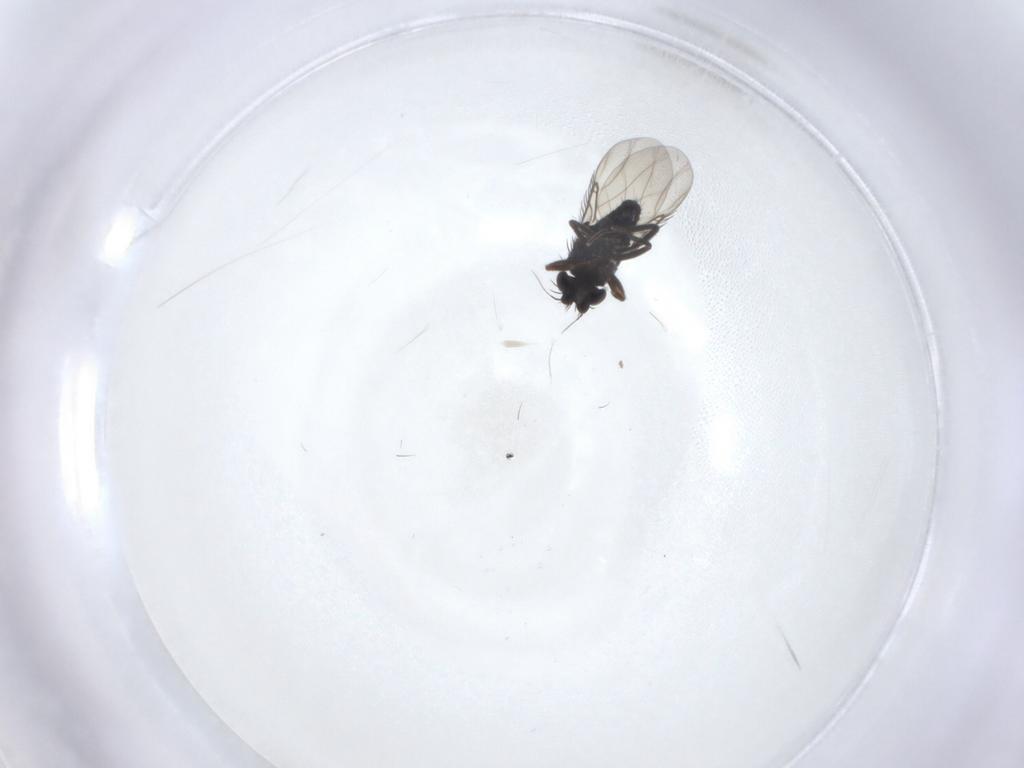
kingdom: Animalia
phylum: Arthropoda
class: Insecta
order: Diptera
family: Phoridae
